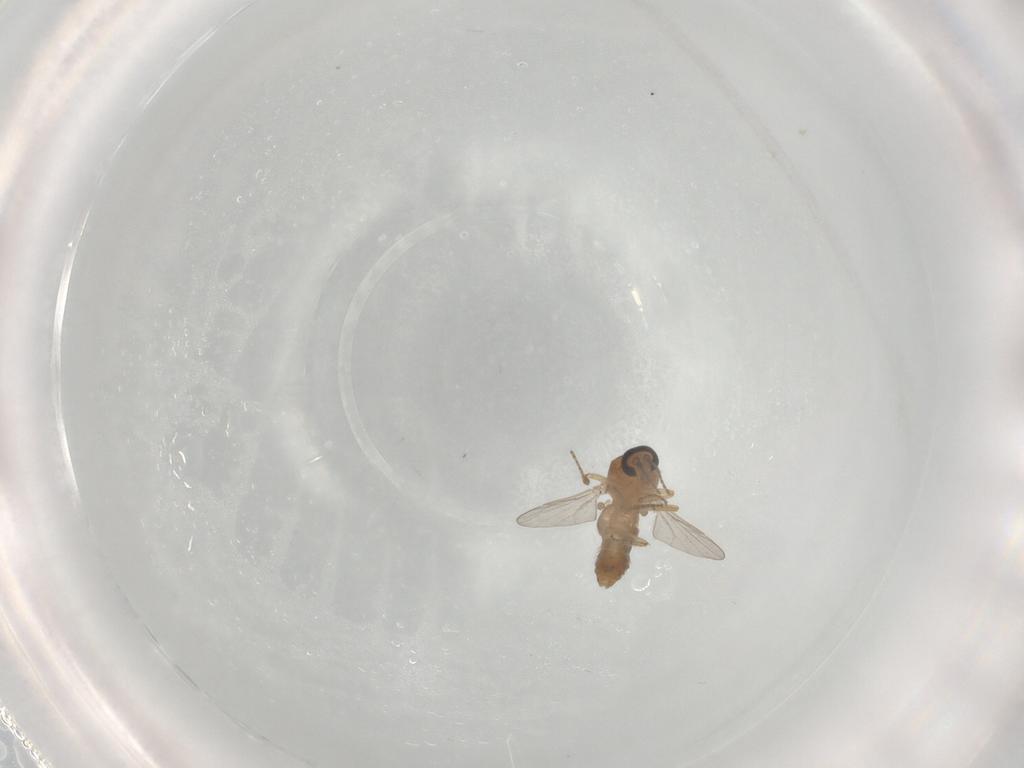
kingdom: Animalia
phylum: Arthropoda
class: Insecta
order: Diptera
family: Ceratopogonidae
